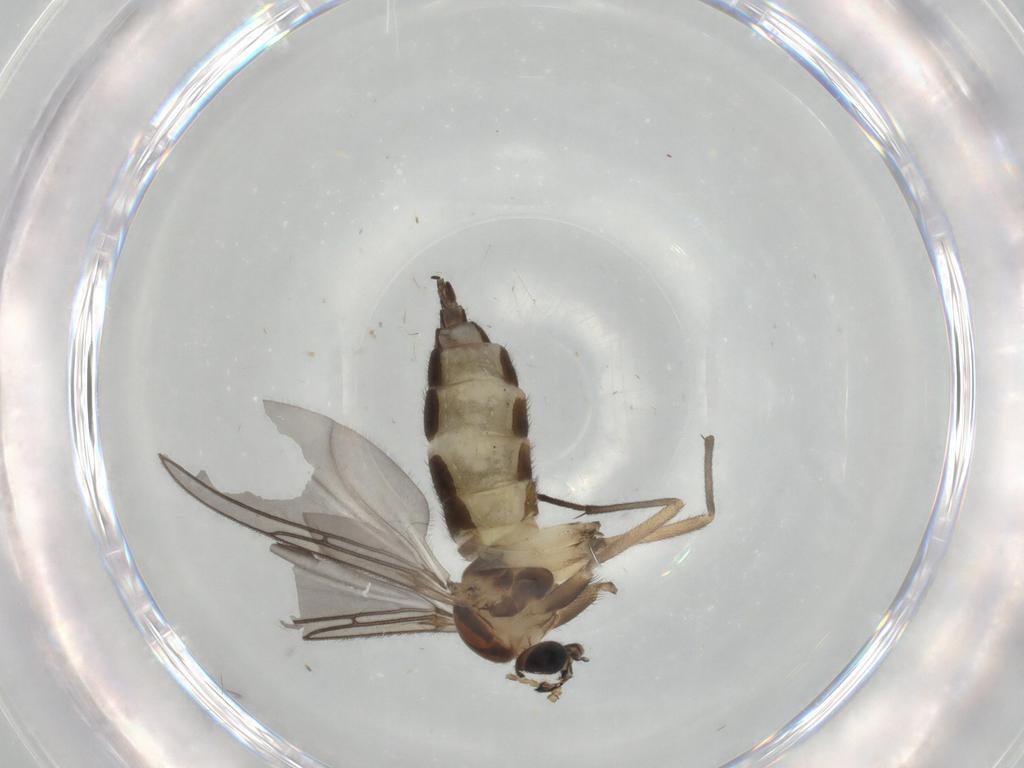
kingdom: Animalia
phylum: Arthropoda
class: Insecta
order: Diptera
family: Sciaridae
